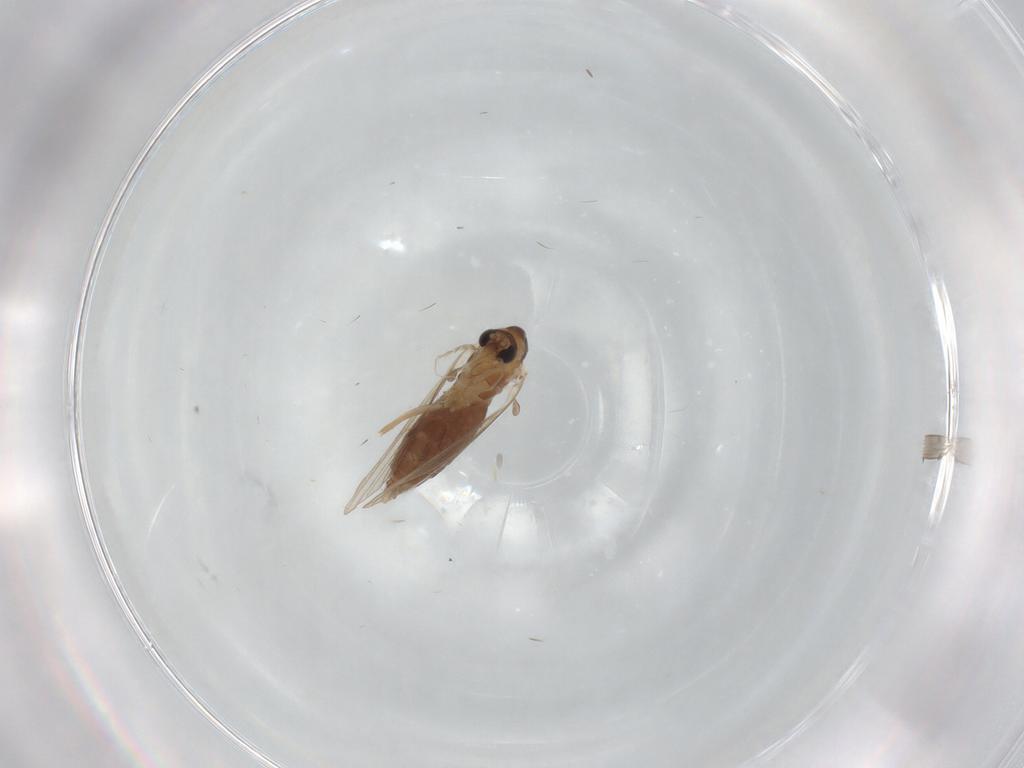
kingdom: Animalia
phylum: Arthropoda
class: Insecta
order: Diptera
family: Psychodidae
